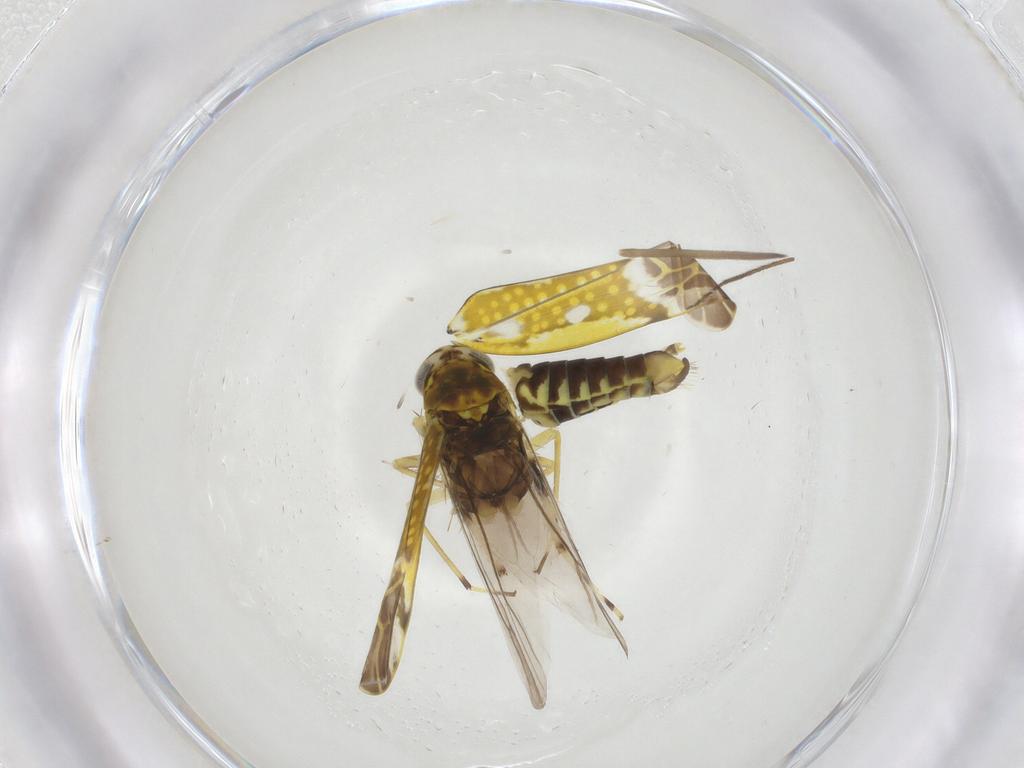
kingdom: Animalia
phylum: Arthropoda
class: Insecta
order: Hemiptera
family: Cicadellidae
